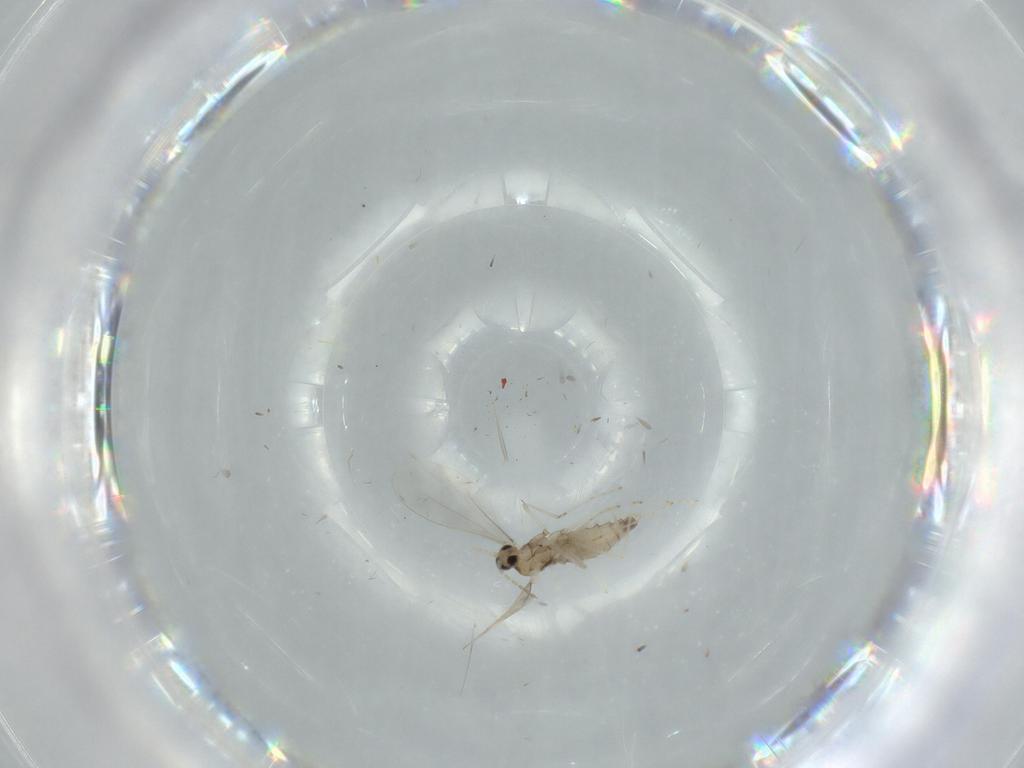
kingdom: Animalia
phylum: Arthropoda
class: Insecta
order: Diptera
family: Cecidomyiidae
